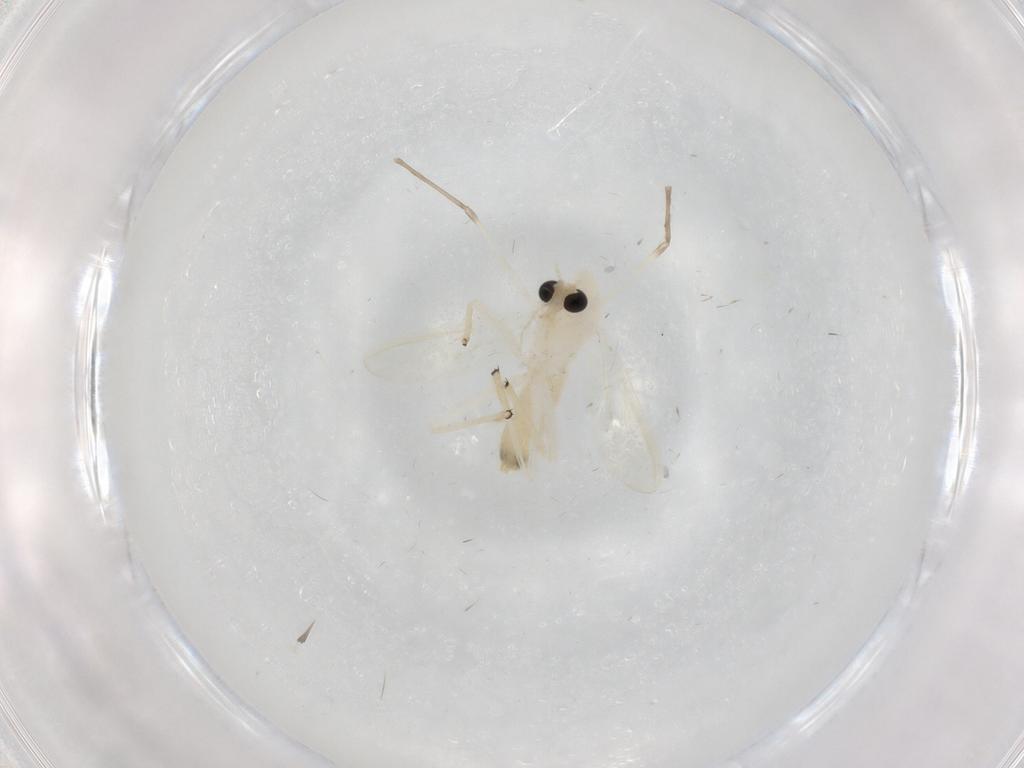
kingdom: Animalia
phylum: Arthropoda
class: Insecta
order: Diptera
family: Chironomidae
